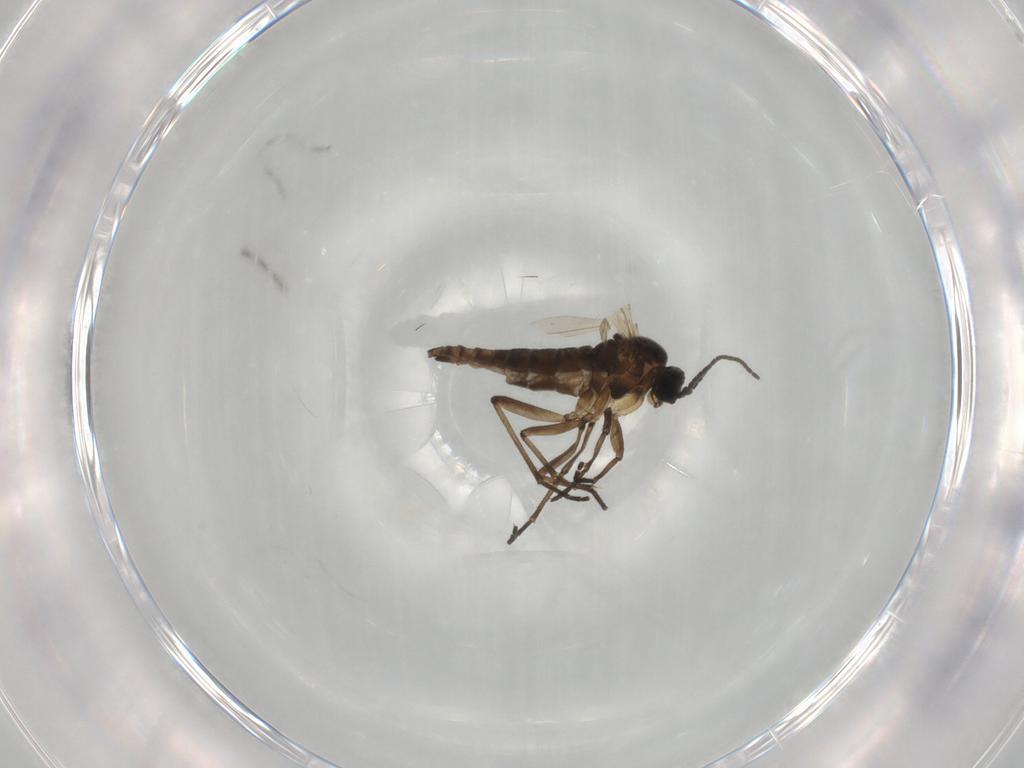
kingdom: Animalia
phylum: Arthropoda
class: Insecta
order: Diptera
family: Sciaridae
